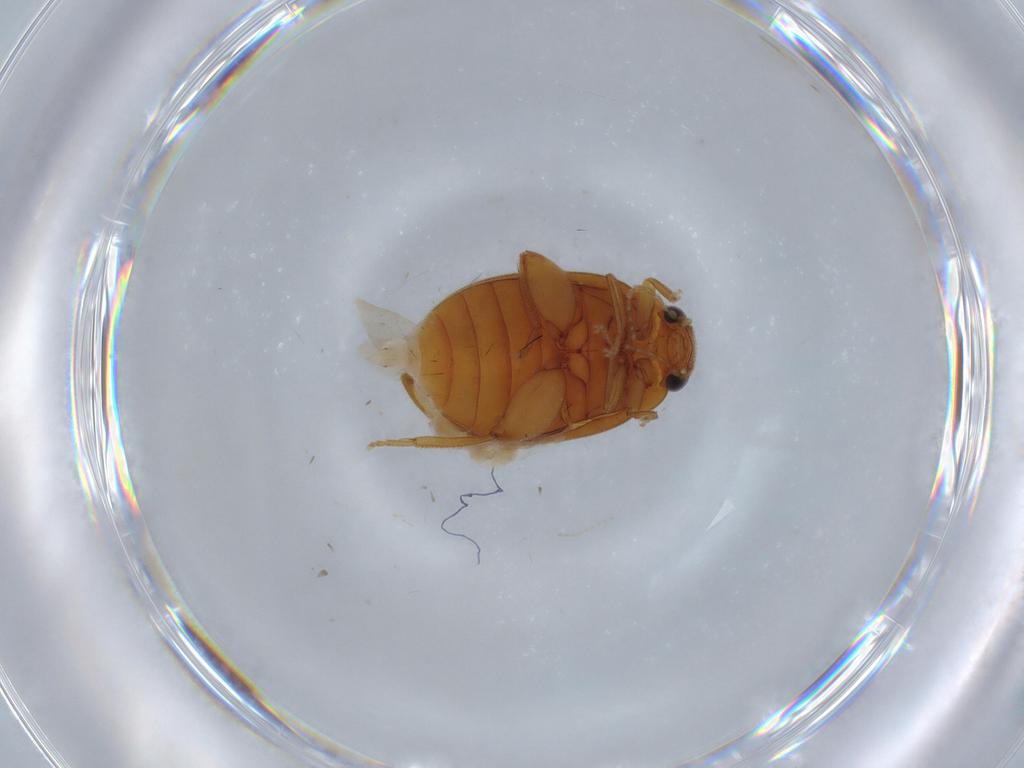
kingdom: Animalia
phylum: Arthropoda
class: Insecta
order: Coleoptera
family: Scirtidae
